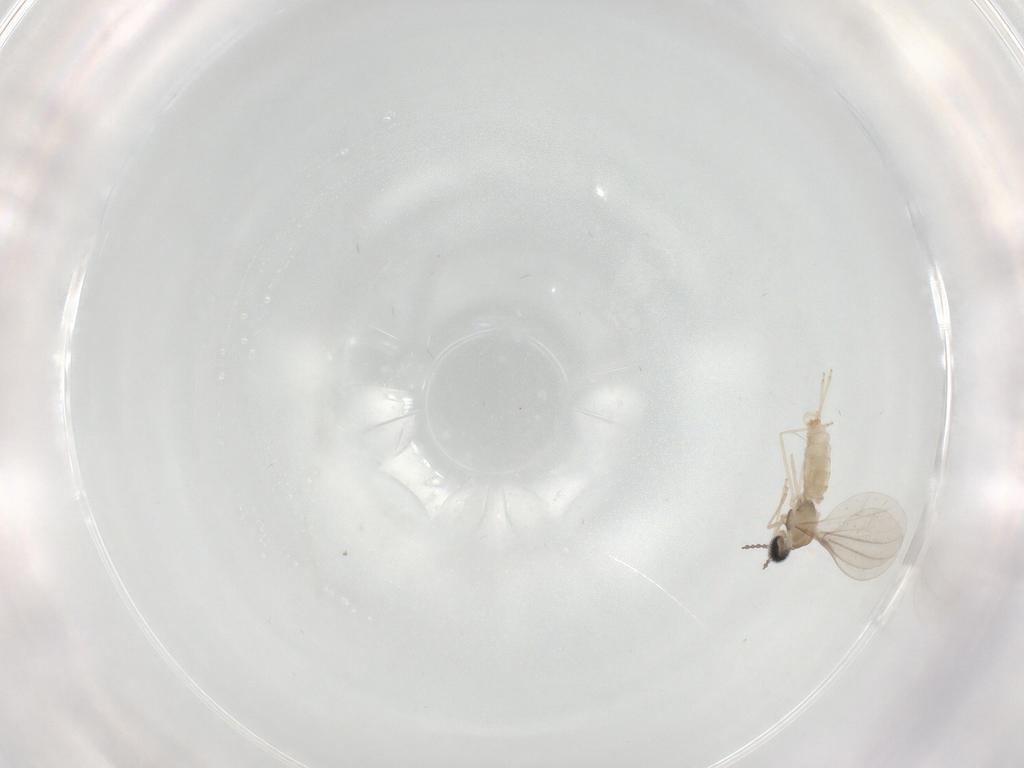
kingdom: Animalia
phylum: Arthropoda
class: Insecta
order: Diptera
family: Cecidomyiidae
